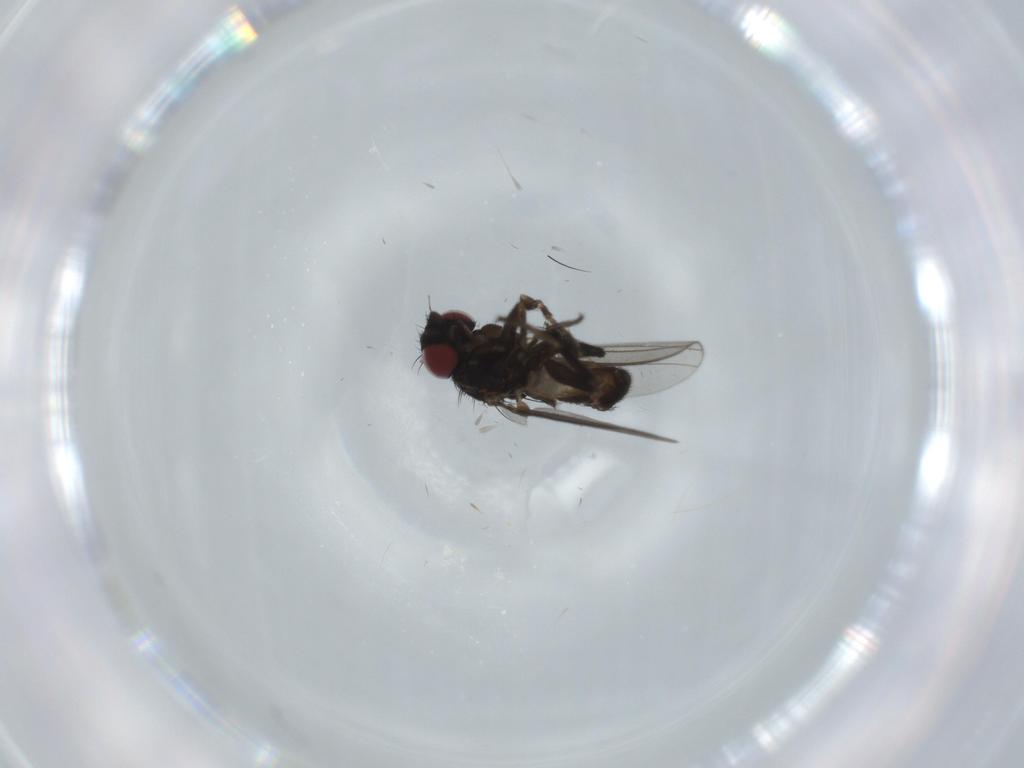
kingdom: Animalia
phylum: Arthropoda
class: Insecta
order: Diptera
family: Milichiidae
